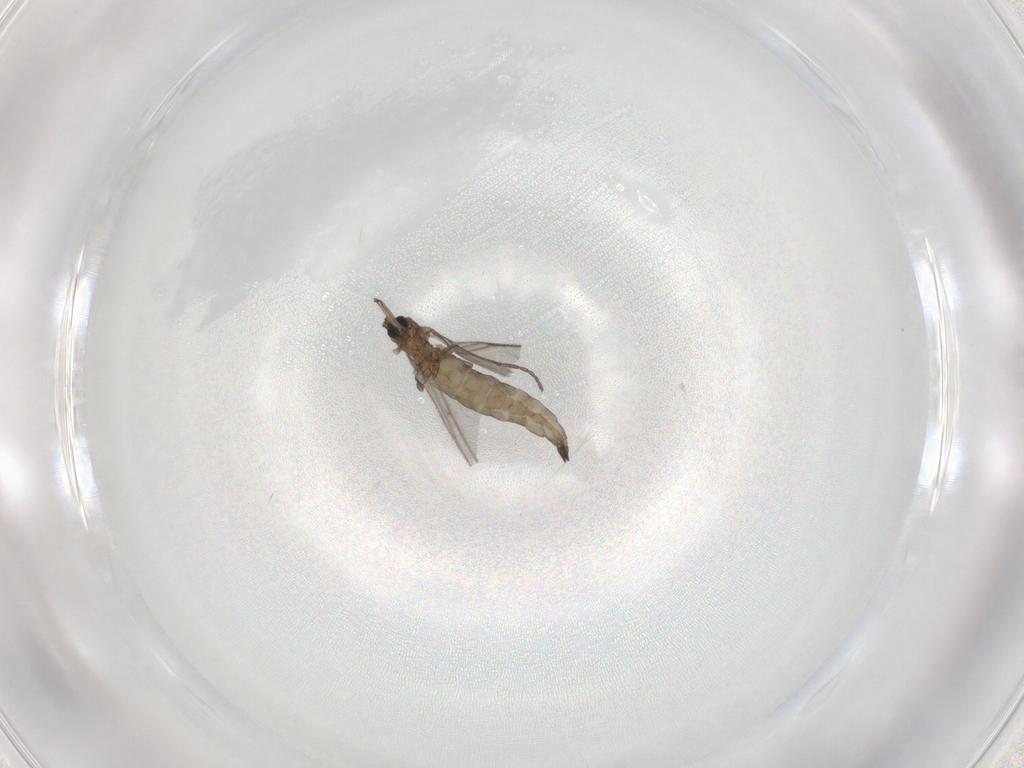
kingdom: Animalia
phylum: Arthropoda
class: Insecta
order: Diptera
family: Sciaridae
